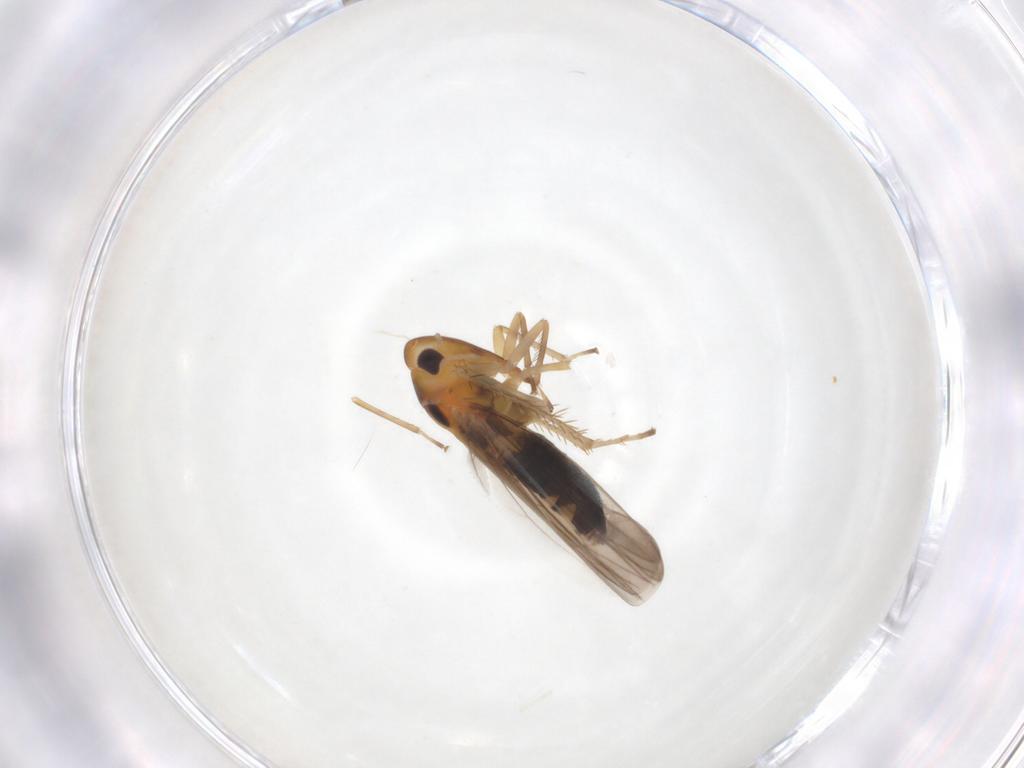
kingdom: Animalia
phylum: Arthropoda
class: Insecta
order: Hemiptera
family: Cicadellidae
